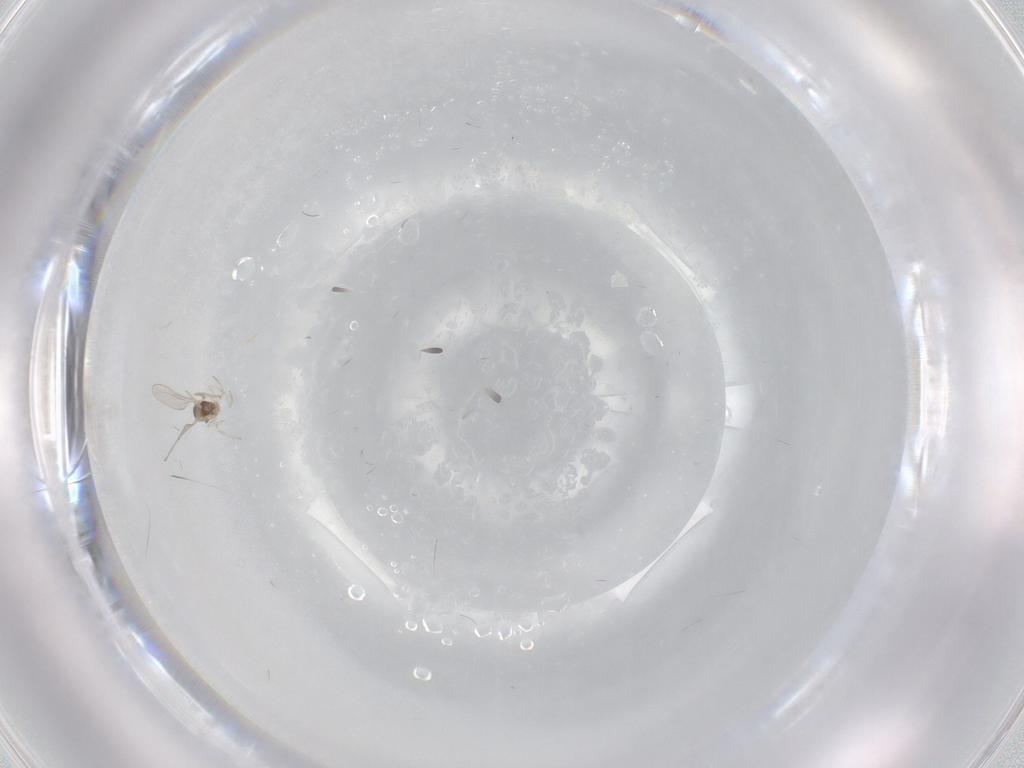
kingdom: Animalia
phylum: Arthropoda
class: Insecta
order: Diptera
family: Cecidomyiidae
